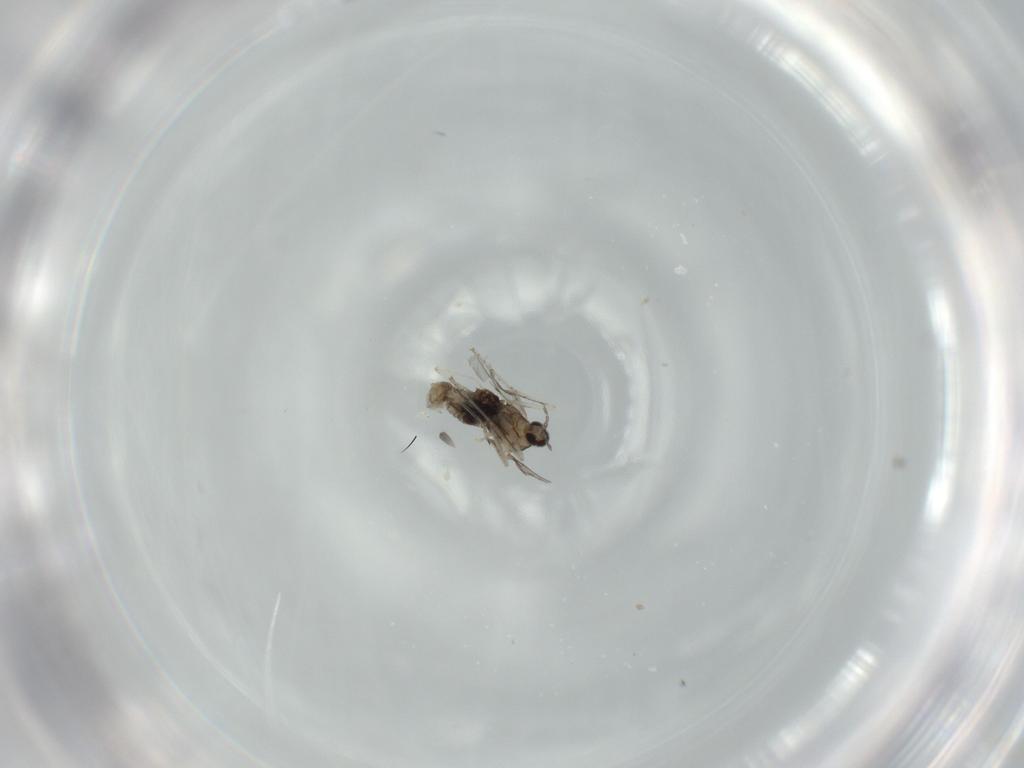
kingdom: Animalia
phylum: Arthropoda
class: Insecta
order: Diptera
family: Cecidomyiidae
